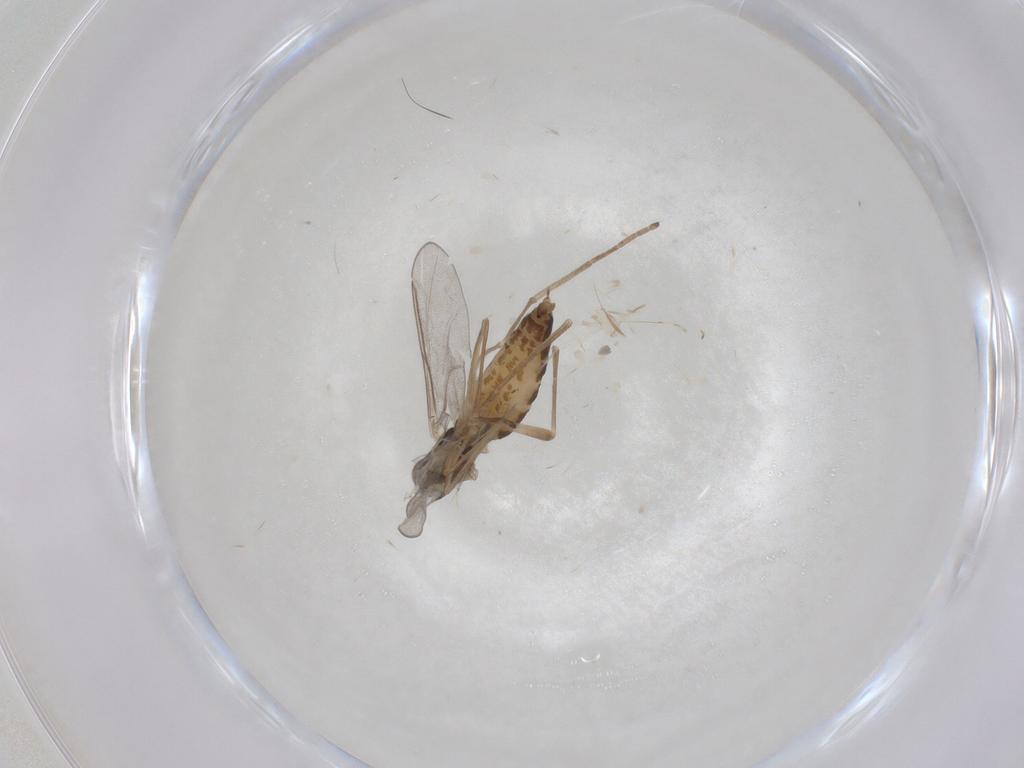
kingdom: Animalia
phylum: Arthropoda
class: Insecta
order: Diptera
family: Cecidomyiidae
